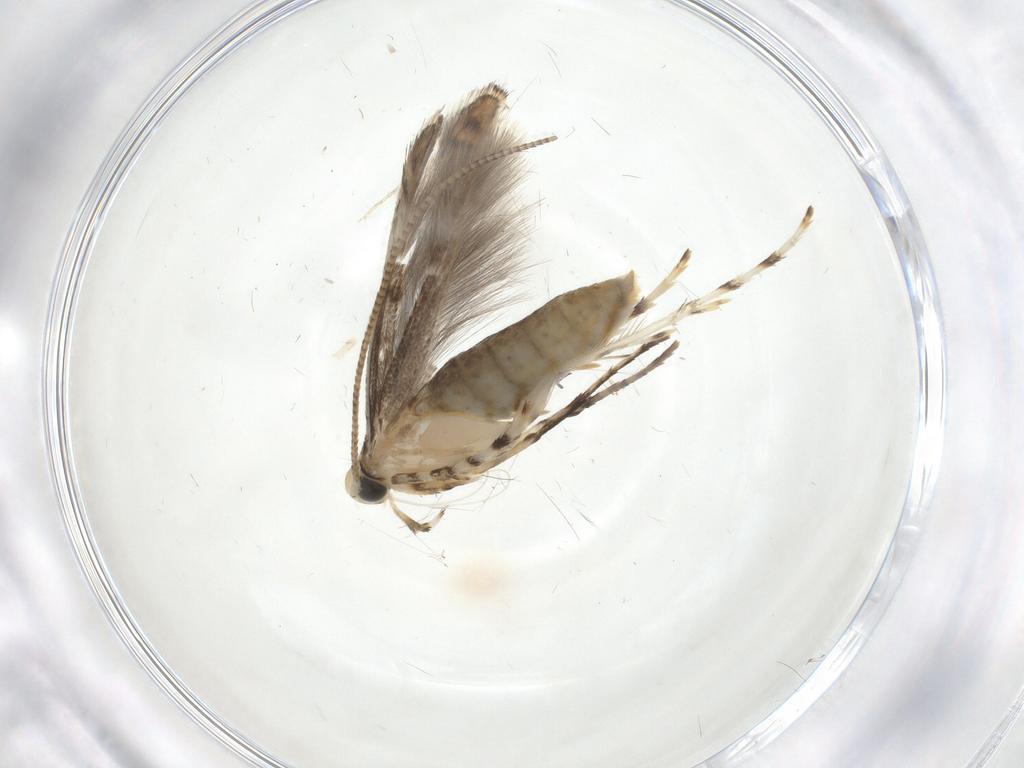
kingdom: Animalia
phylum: Arthropoda
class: Insecta
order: Lepidoptera
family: Gracillariidae
